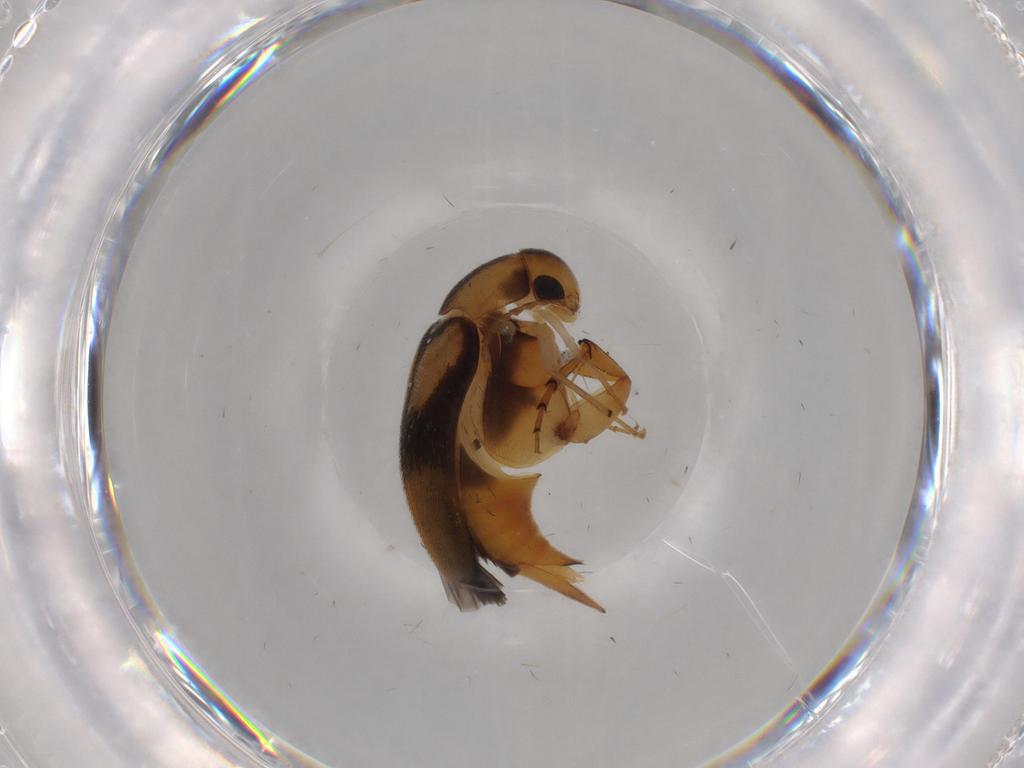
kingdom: Animalia
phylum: Arthropoda
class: Insecta
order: Coleoptera
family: Mordellidae
